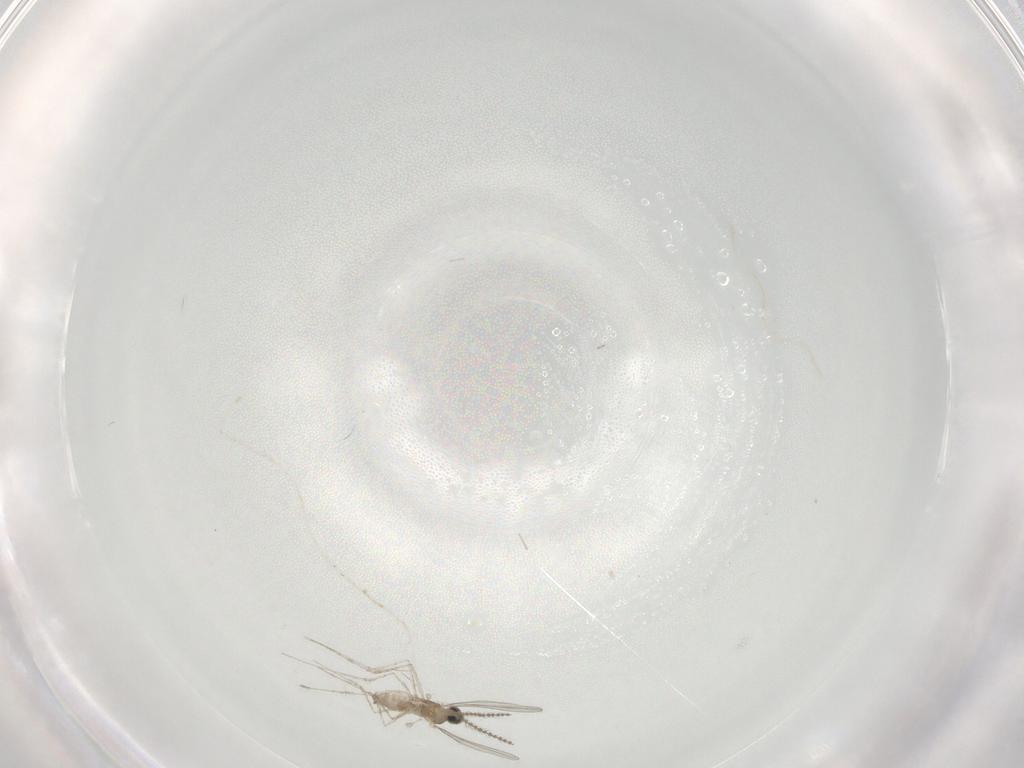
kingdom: Animalia
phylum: Arthropoda
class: Insecta
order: Diptera
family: Cecidomyiidae
